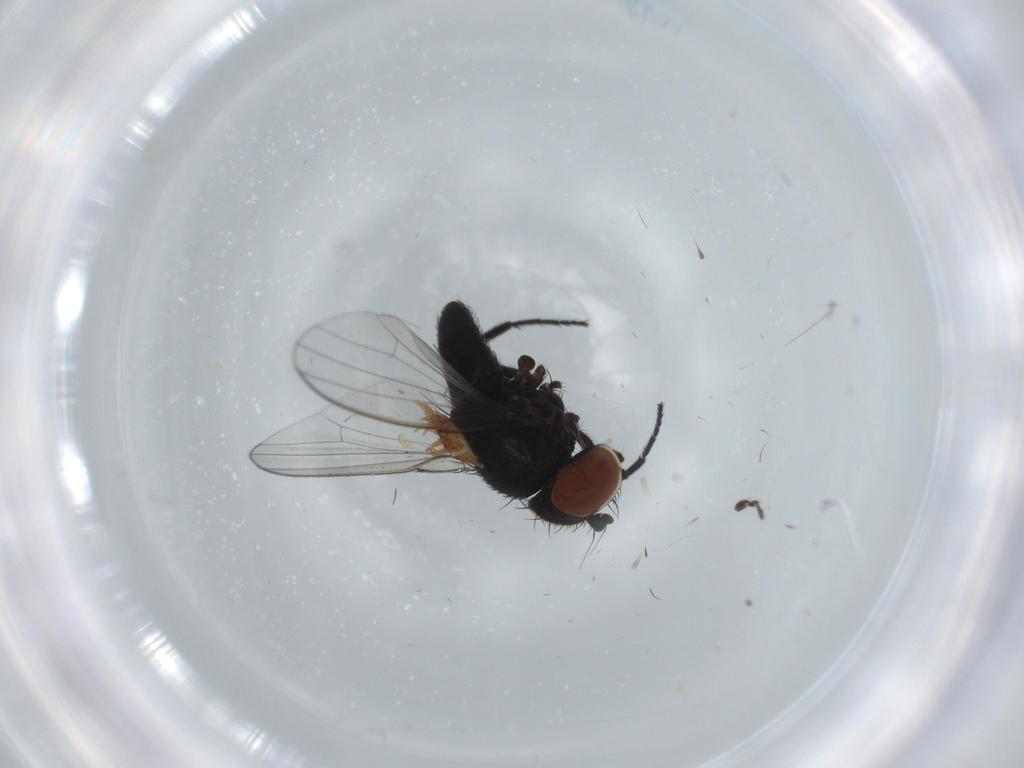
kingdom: Animalia
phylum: Arthropoda
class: Insecta
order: Diptera
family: Milichiidae
